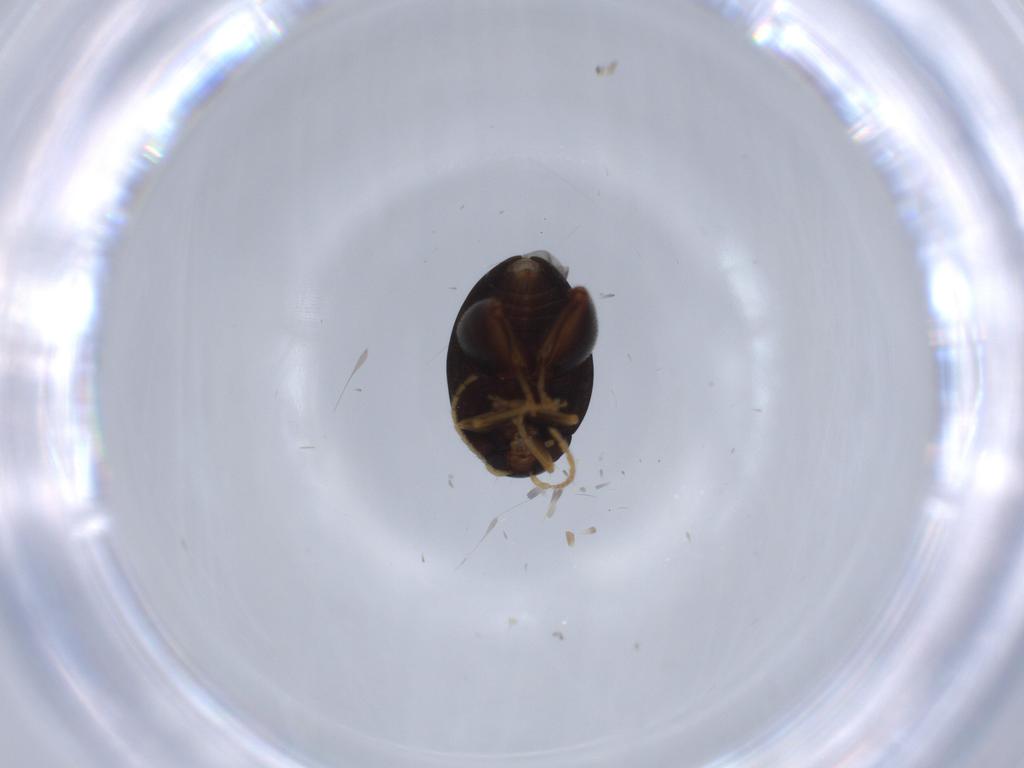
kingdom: Animalia
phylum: Arthropoda
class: Insecta
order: Coleoptera
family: Chrysomelidae
